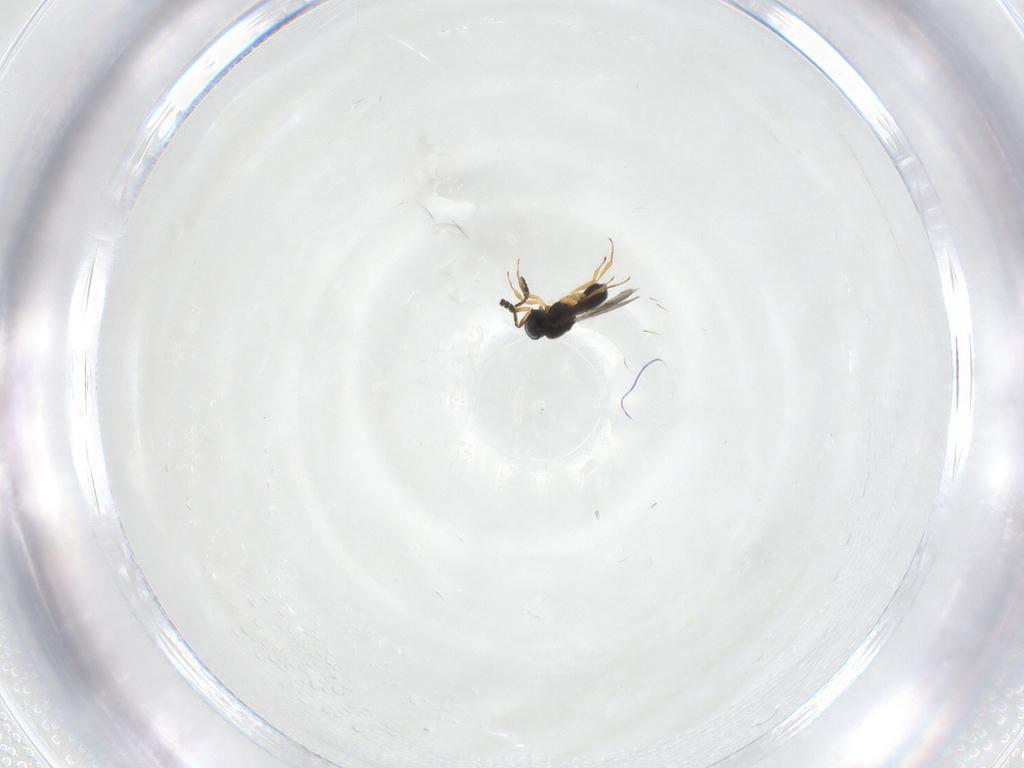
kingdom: Animalia
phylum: Arthropoda
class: Insecta
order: Hymenoptera
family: Scelionidae
